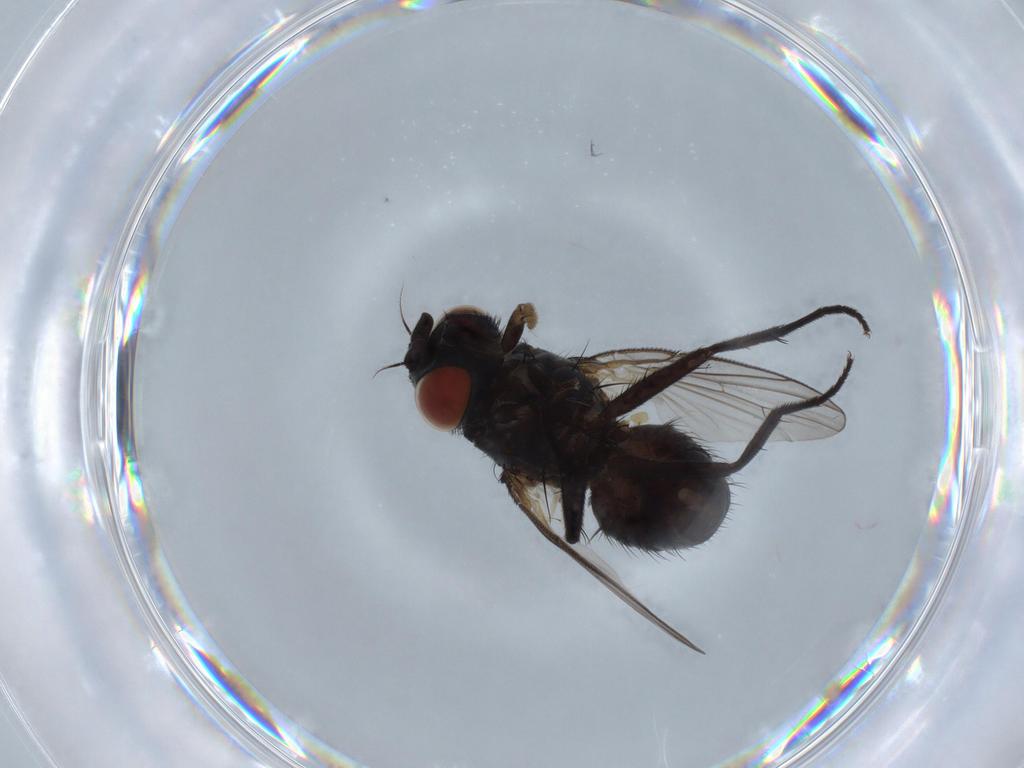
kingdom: Animalia
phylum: Arthropoda
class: Insecta
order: Diptera
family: Muscidae
